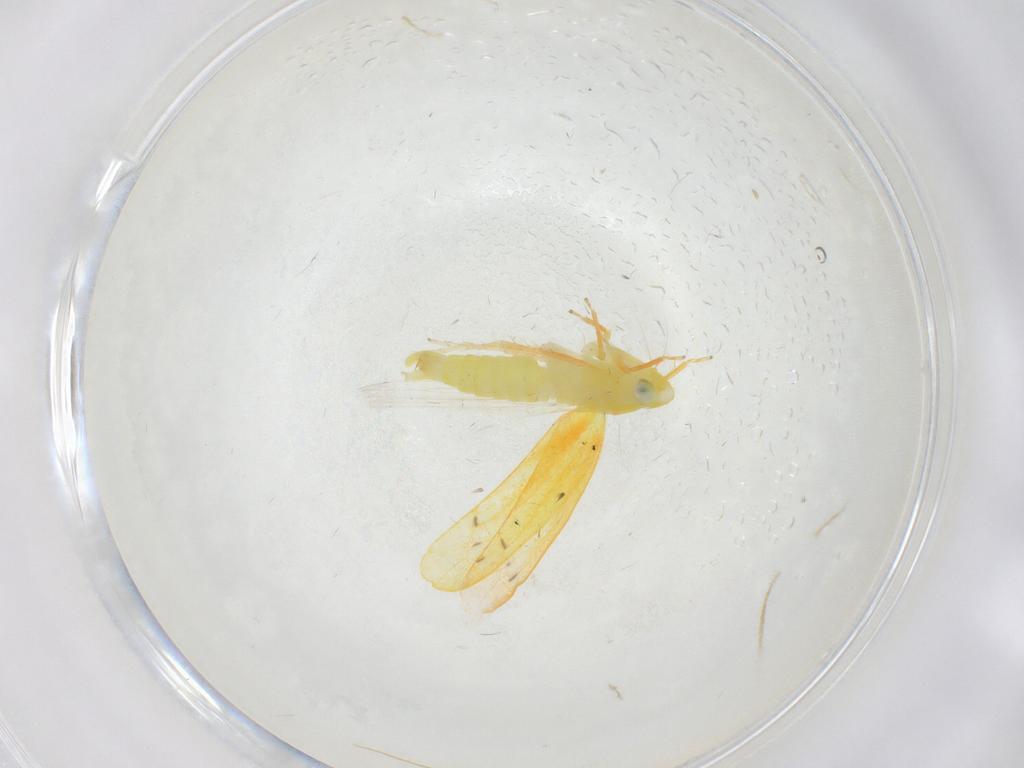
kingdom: Animalia
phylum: Arthropoda
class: Insecta
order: Hemiptera
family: Cicadellidae
